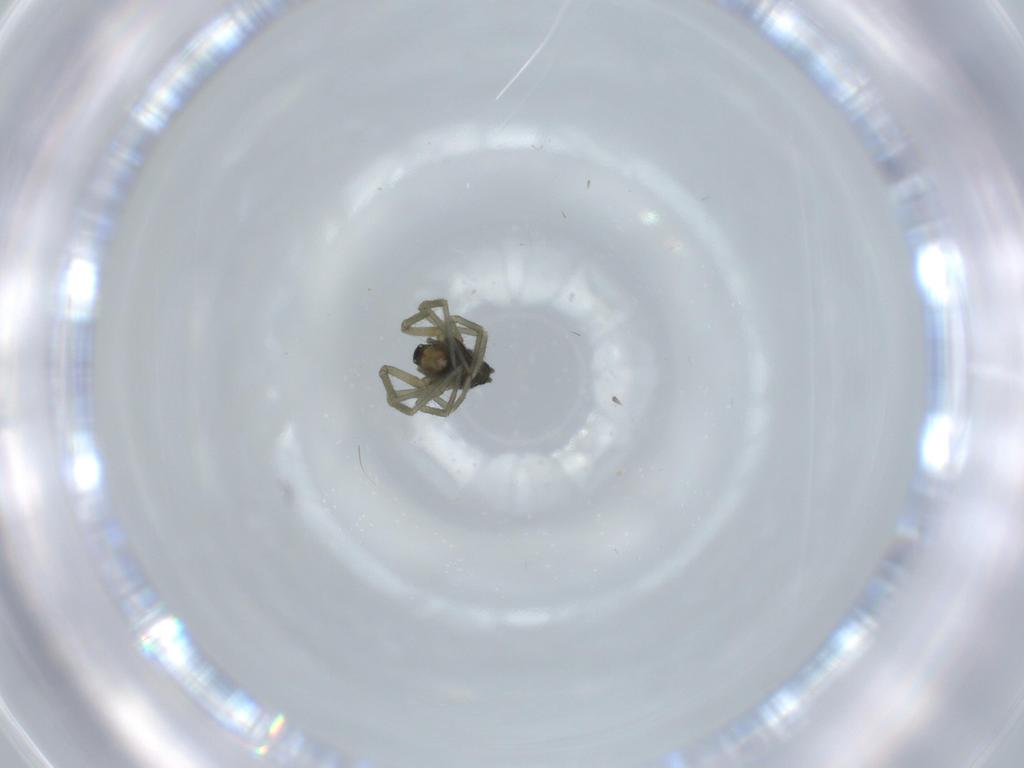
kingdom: Animalia
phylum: Arthropoda
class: Arachnida
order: Araneae
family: Linyphiidae
